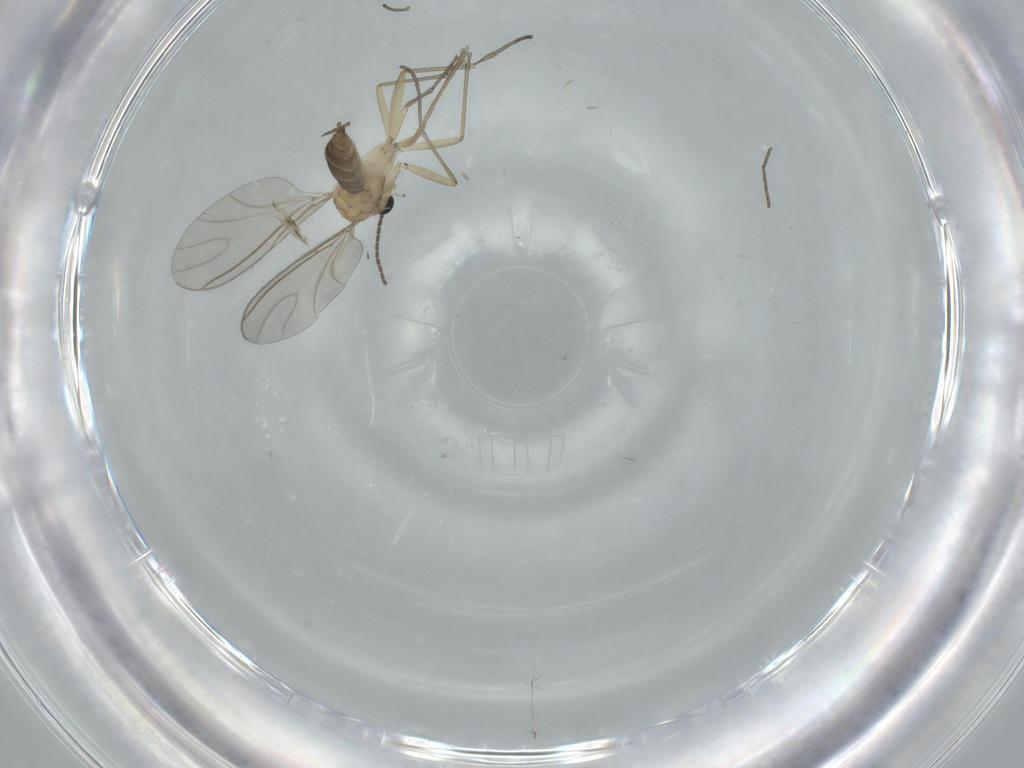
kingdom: Animalia
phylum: Arthropoda
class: Insecta
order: Diptera
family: Sciaridae
